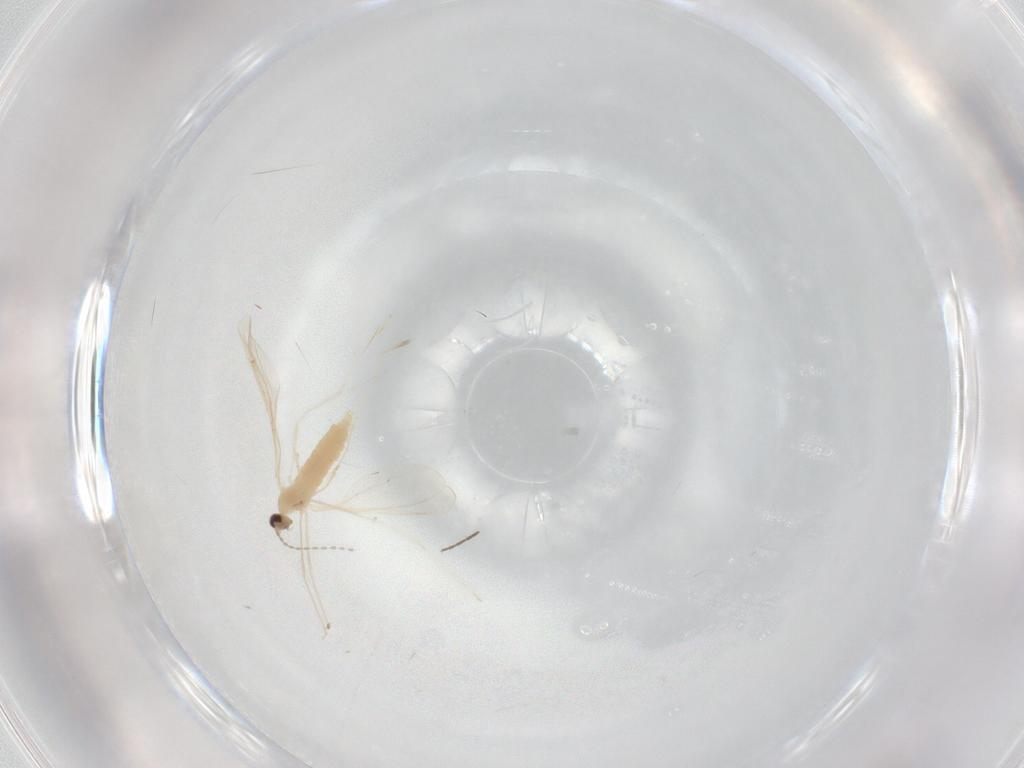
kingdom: Animalia
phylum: Arthropoda
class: Insecta
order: Diptera
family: Cecidomyiidae
